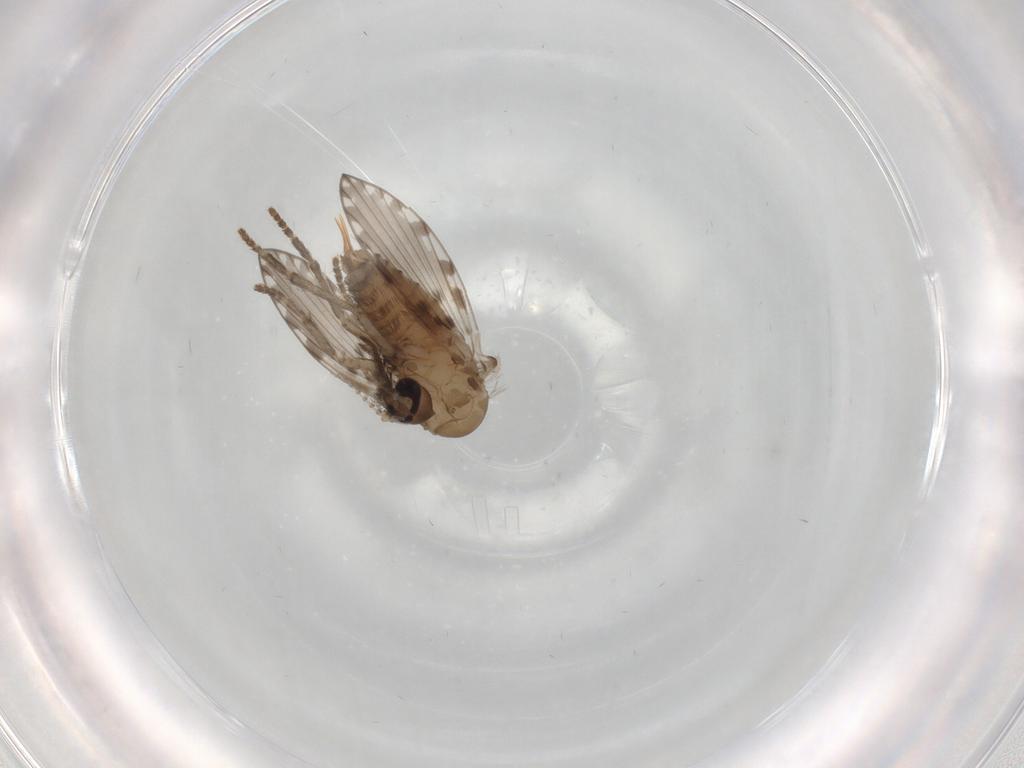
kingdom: Animalia
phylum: Arthropoda
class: Insecta
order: Diptera
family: Psychodidae
